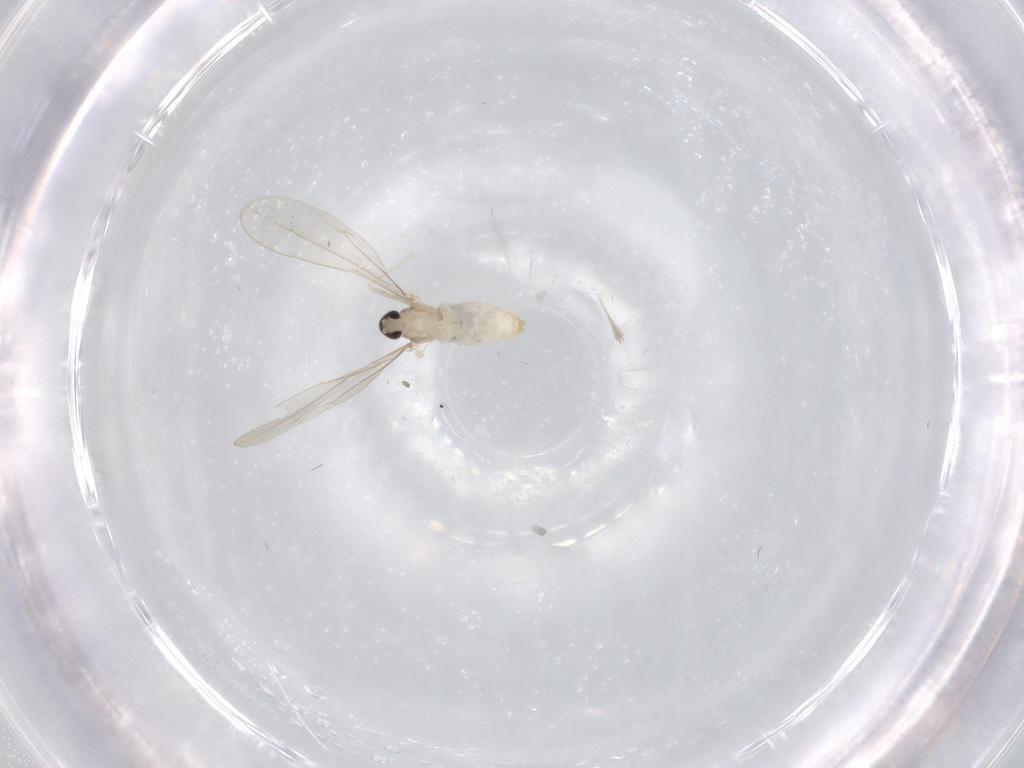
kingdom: Animalia
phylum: Arthropoda
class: Insecta
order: Diptera
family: Cecidomyiidae
